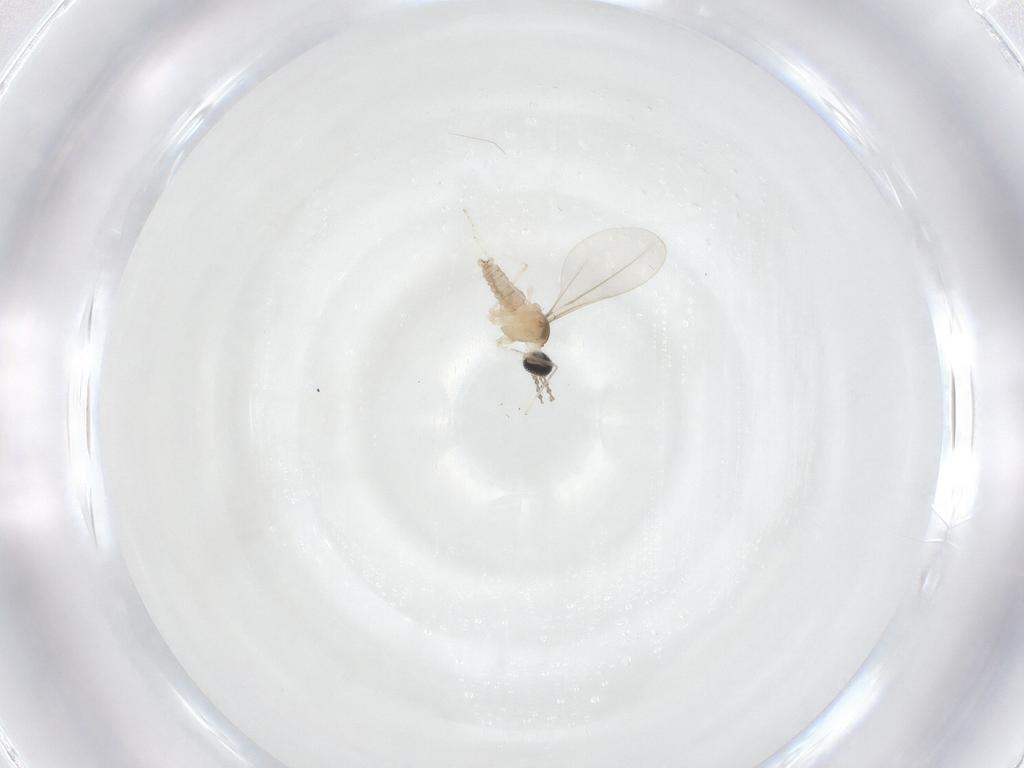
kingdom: Animalia
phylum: Arthropoda
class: Insecta
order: Diptera
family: Cecidomyiidae
